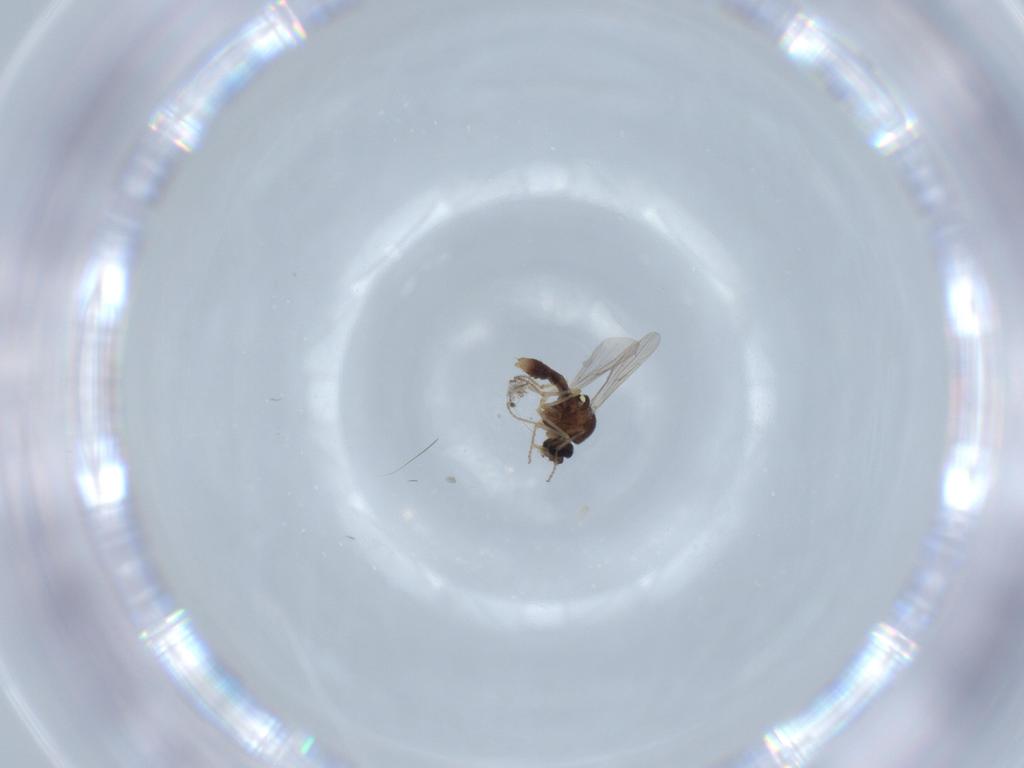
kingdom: Animalia
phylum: Arthropoda
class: Insecta
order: Diptera
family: Ceratopogonidae
